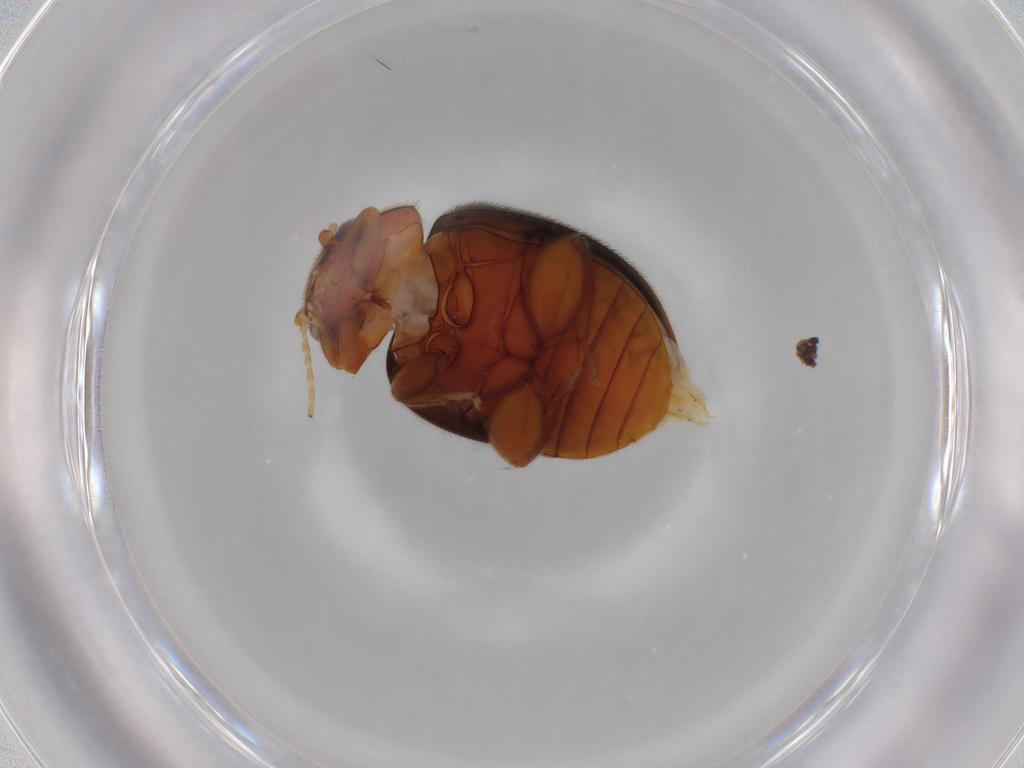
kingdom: Animalia
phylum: Arthropoda
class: Insecta
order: Coleoptera
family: Scirtidae
